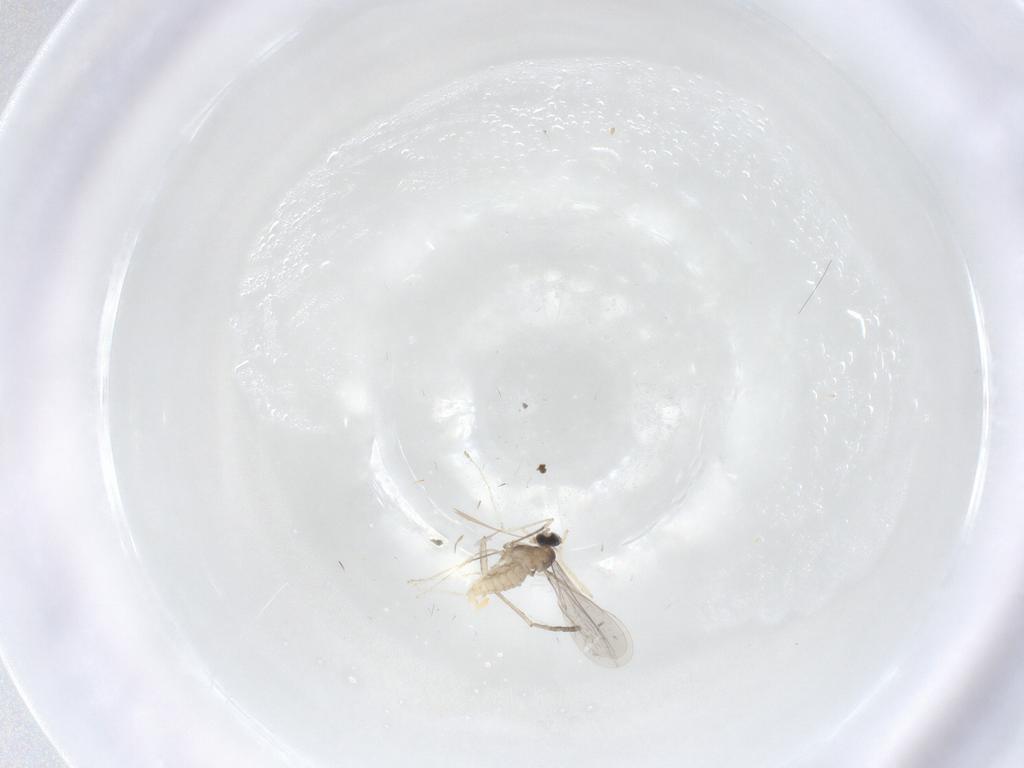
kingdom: Animalia
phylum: Arthropoda
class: Insecta
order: Diptera
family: Cecidomyiidae
